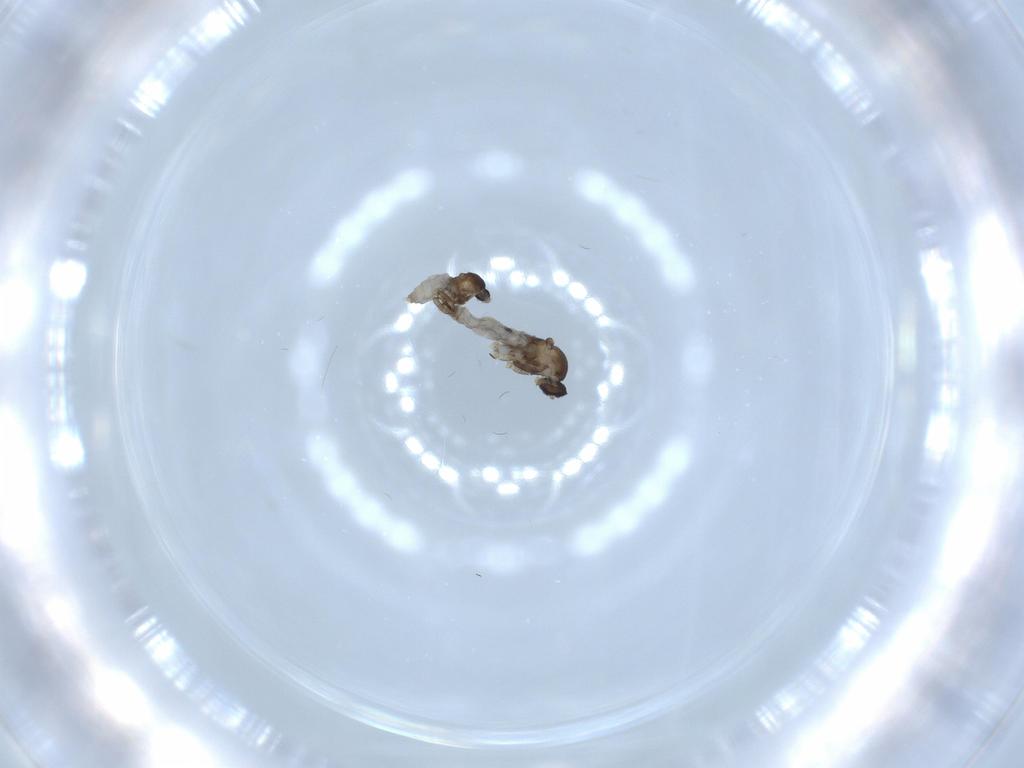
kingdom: Animalia
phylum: Arthropoda
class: Insecta
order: Diptera
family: Cecidomyiidae
